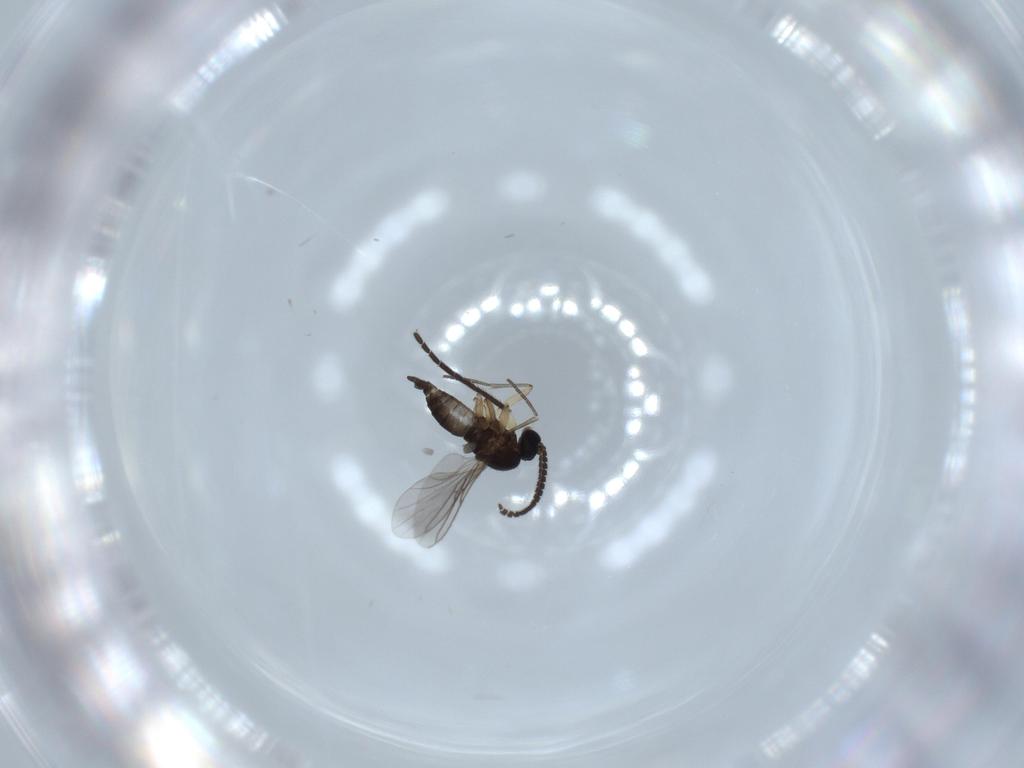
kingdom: Animalia
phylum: Arthropoda
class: Insecta
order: Diptera
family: Sciaridae
